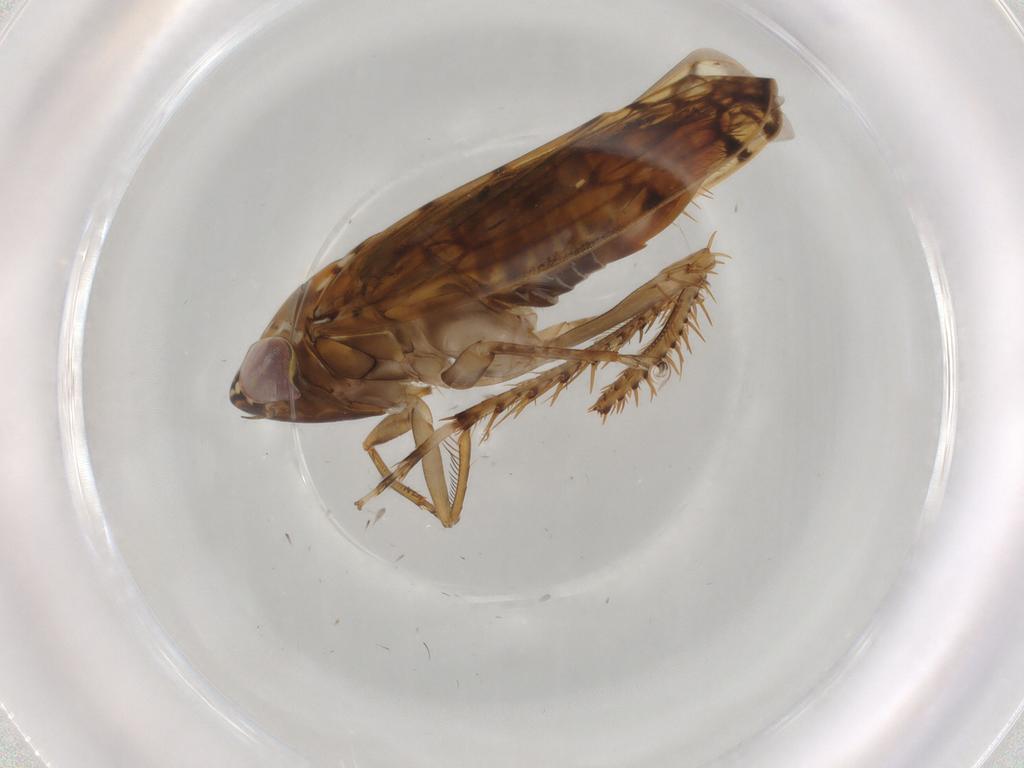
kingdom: Animalia
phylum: Arthropoda
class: Insecta
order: Hemiptera
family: Cicadellidae
